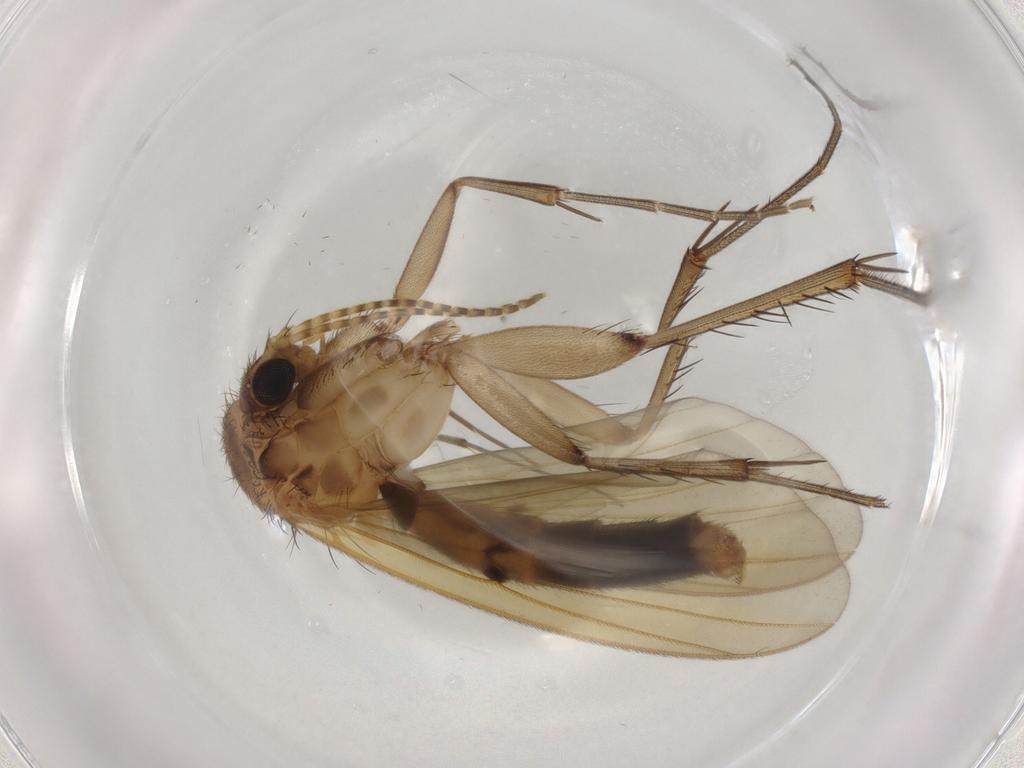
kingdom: Animalia
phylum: Arthropoda
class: Insecta
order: Diptera
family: Chironomidae
